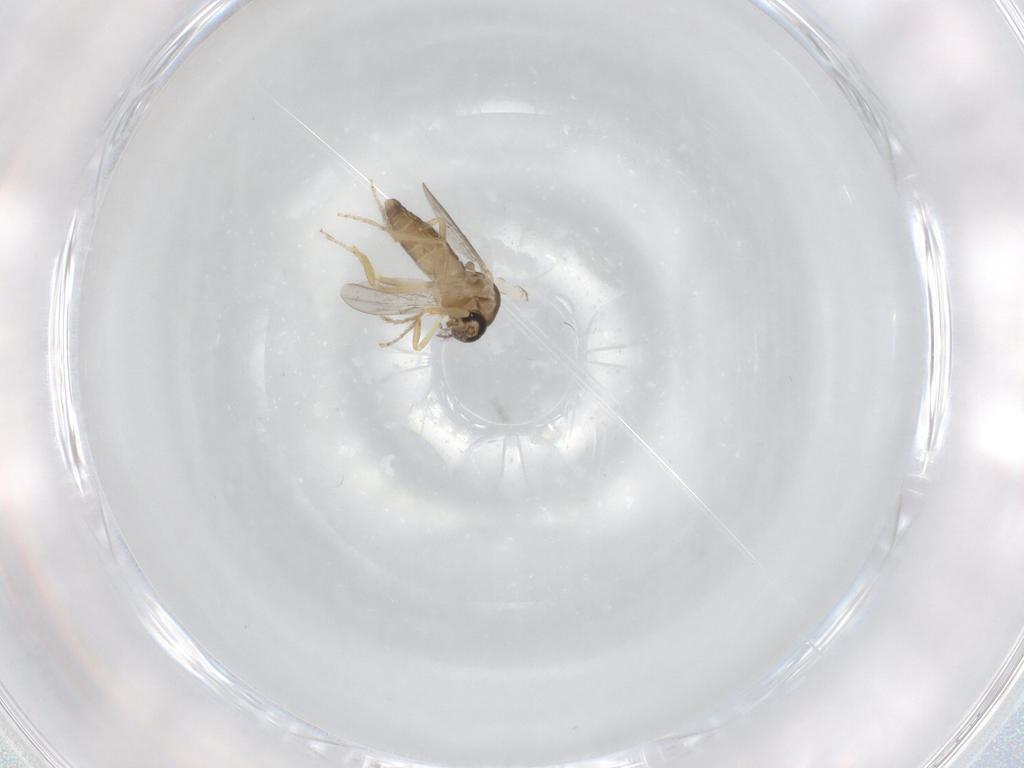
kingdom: Animalia
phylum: Arthropoda
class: Insecta
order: Diptera
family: Ceratopogonidae
